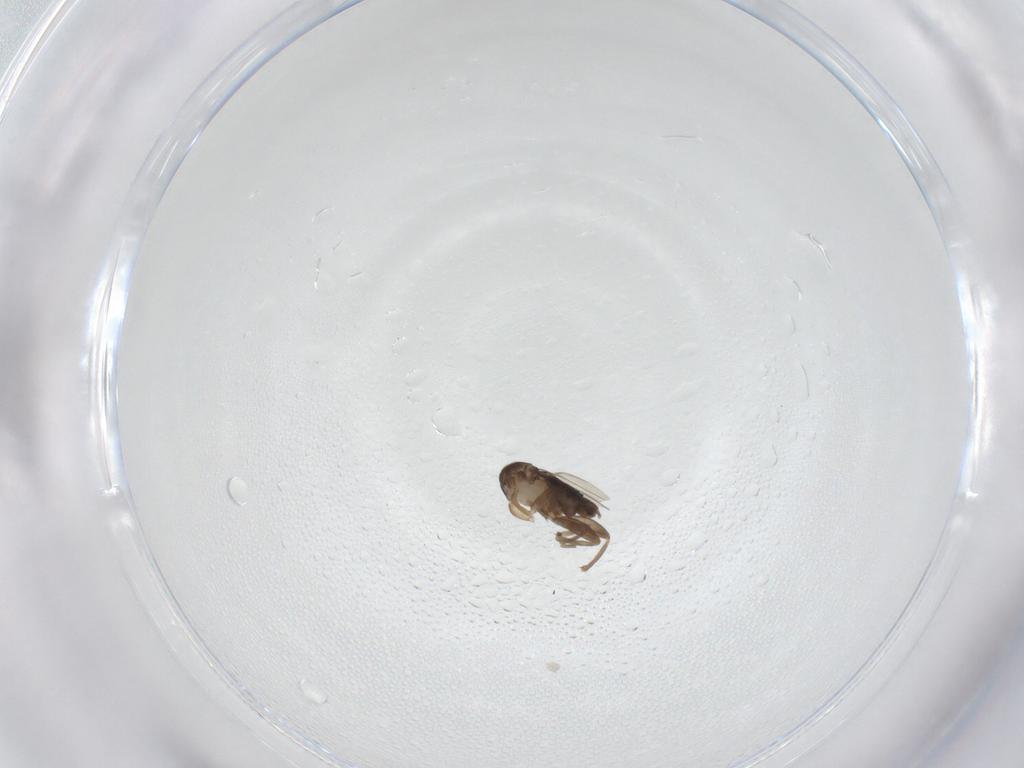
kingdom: Animalia
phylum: Arthropoda
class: Insecta
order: Diptera
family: Phoridae
